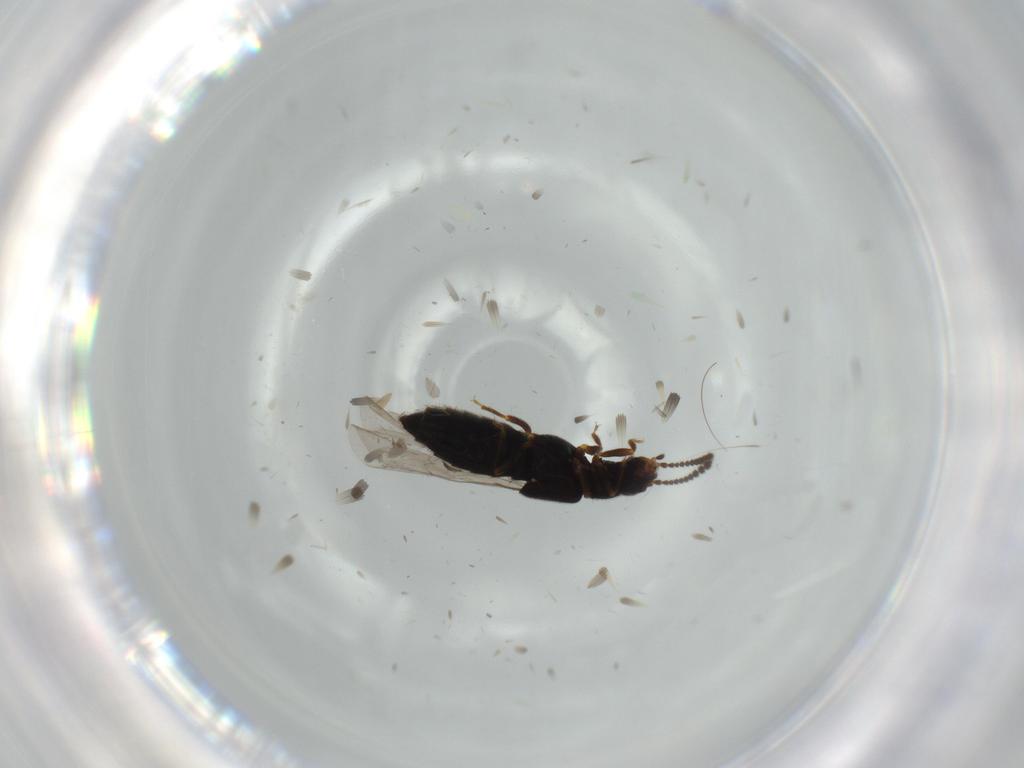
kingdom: Animalia
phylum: Arthropoda
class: Insecta
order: Coleoptera
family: Staphylinidae
